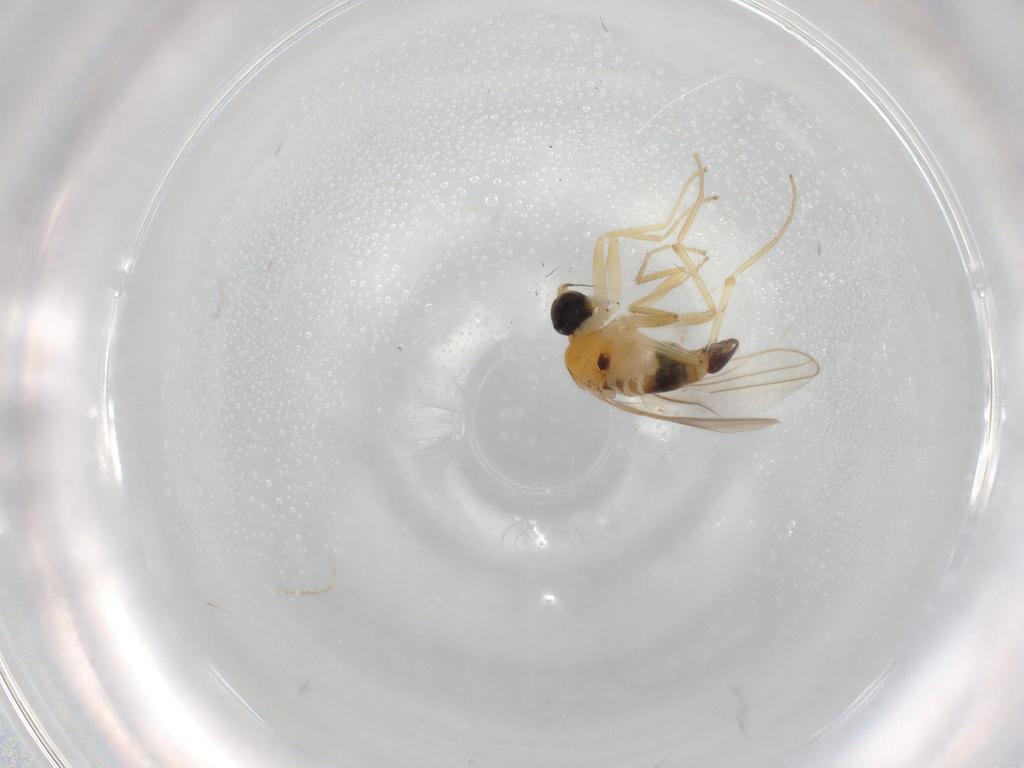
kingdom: Animalia
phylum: Arthropoda
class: Insecta
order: Diptera
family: Hybotidae
